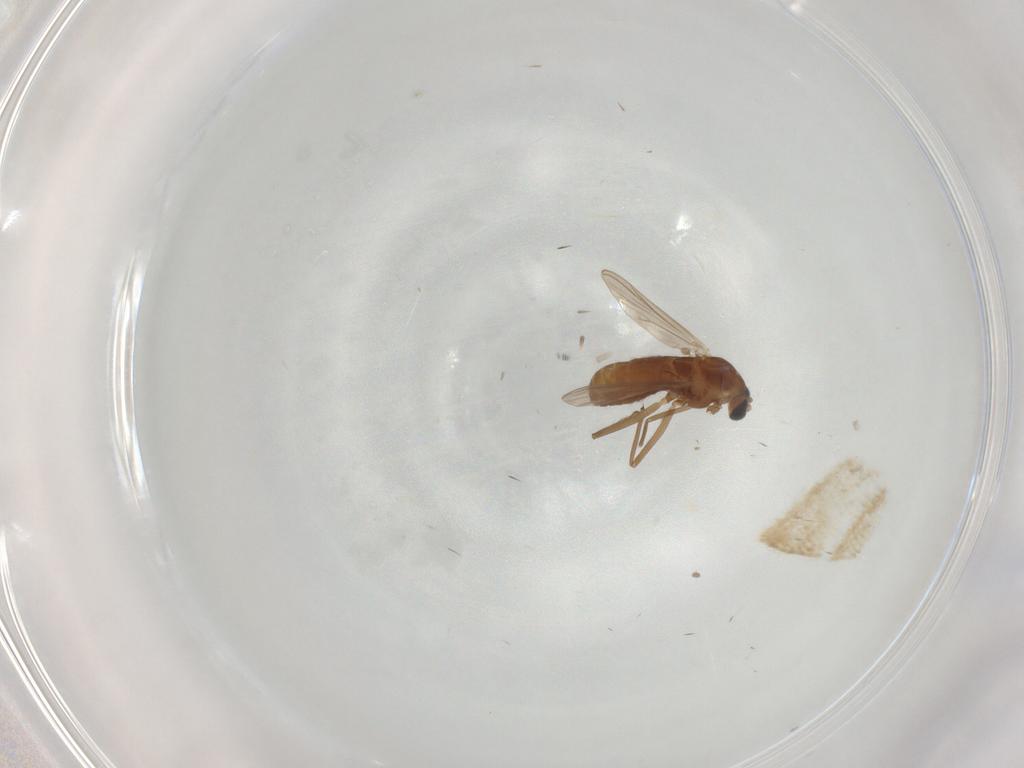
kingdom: Animalia
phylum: Arthropoda
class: Insecta
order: Diptera
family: Chironomidae
